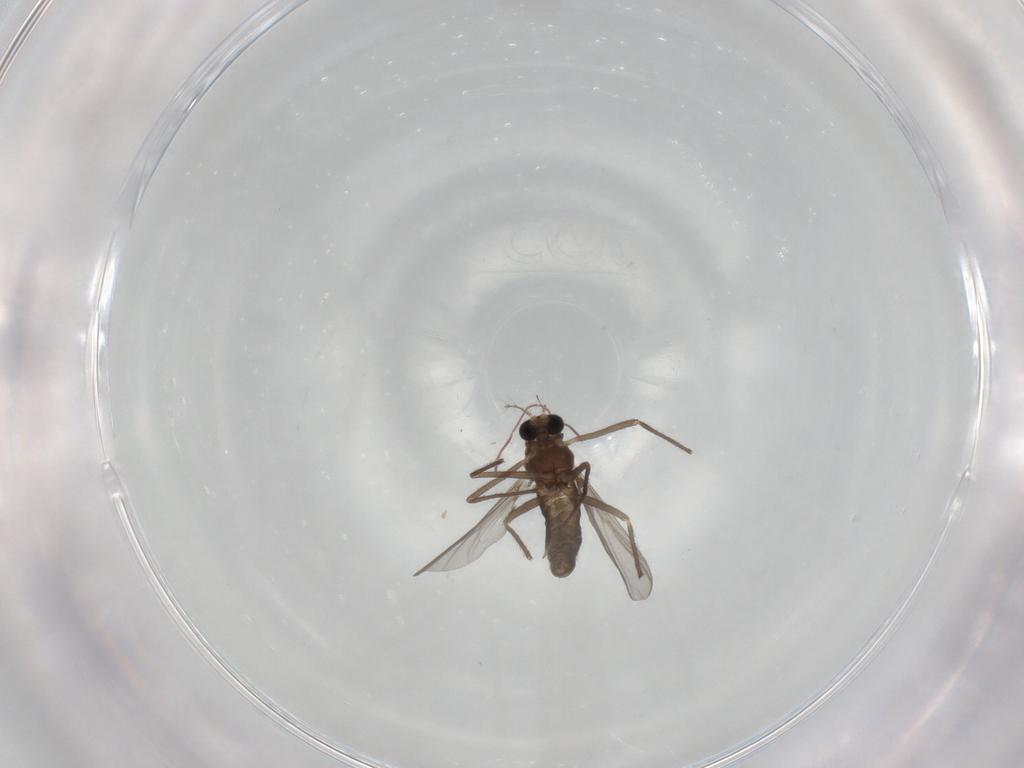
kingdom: Animalia
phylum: Arthropoda
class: Insecta
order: Diptera
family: Chironomidae
